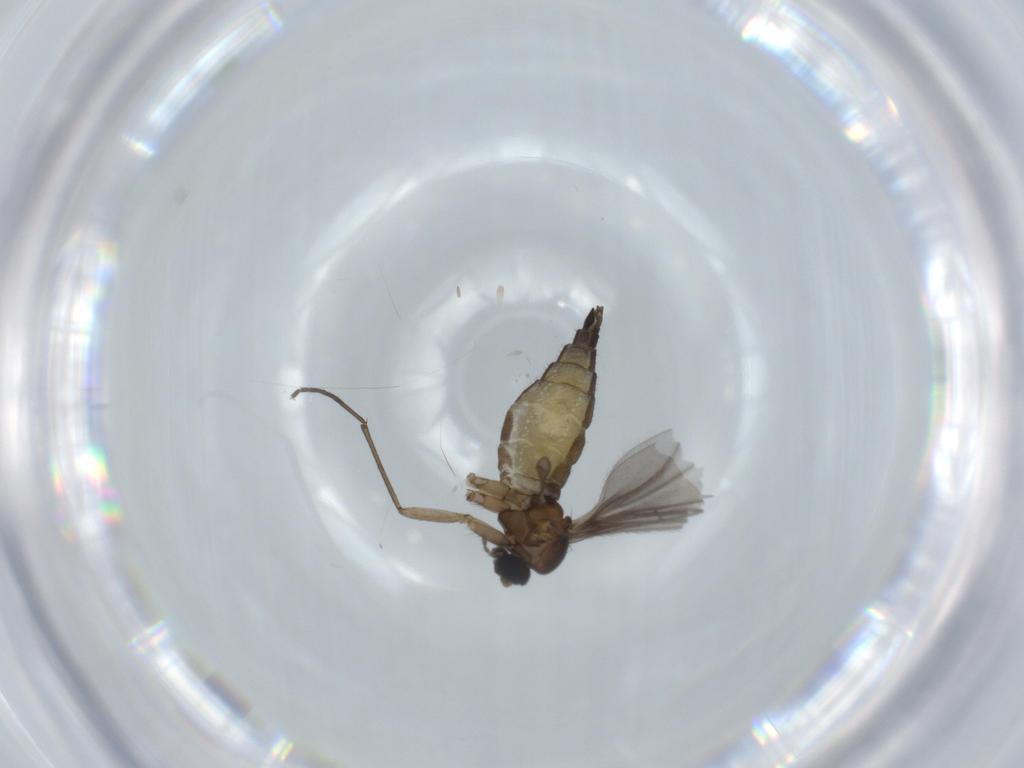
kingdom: Animalia
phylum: Arthropoda
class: Insecta
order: Diptera
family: Sciaridae
